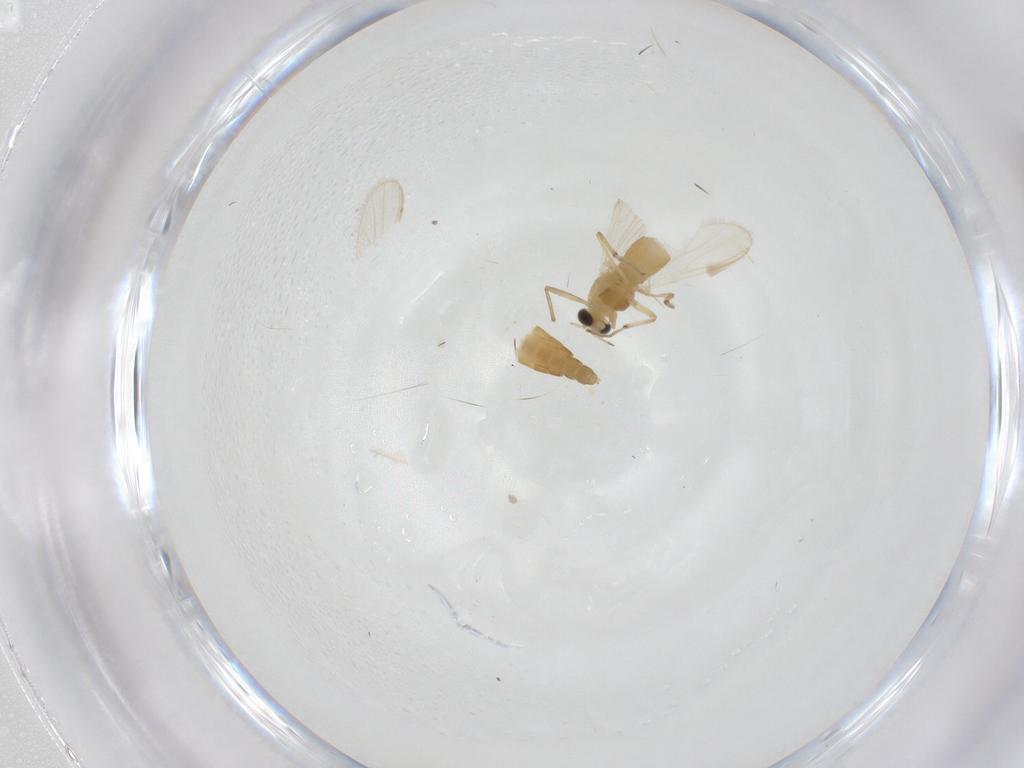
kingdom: Animalia
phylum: Arthropoda
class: Insecta
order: Diptera
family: Chironomidae
